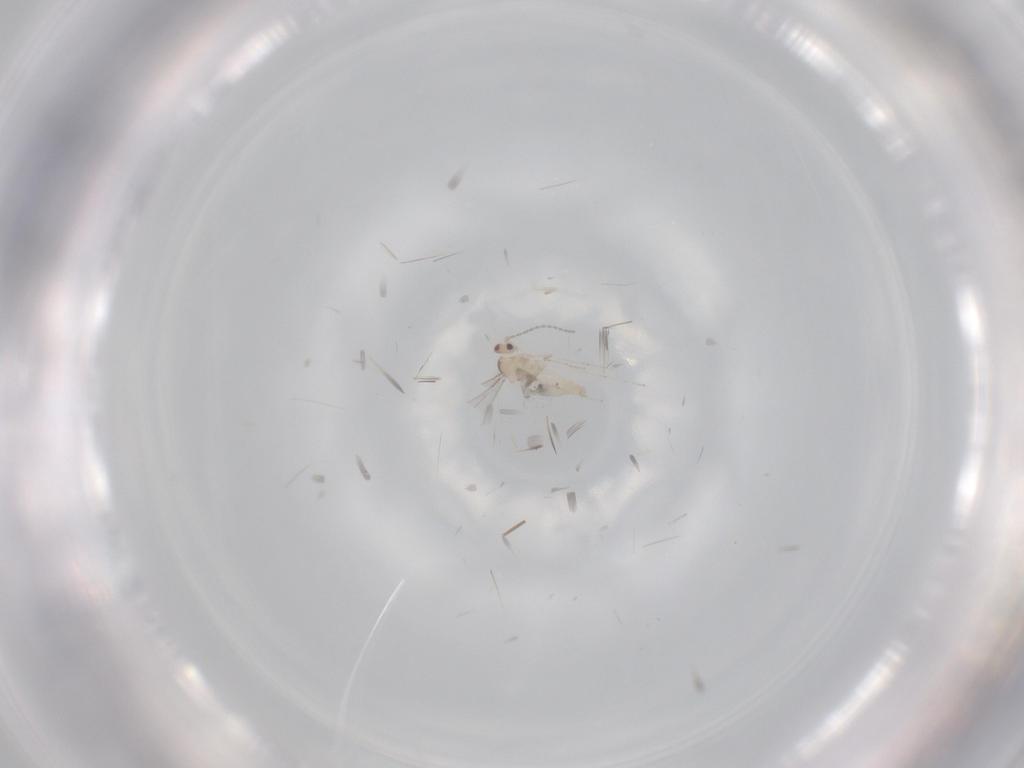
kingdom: Animalia
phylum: Arthropoda
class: Insecta
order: Diptera
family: Cecidomyiidae
